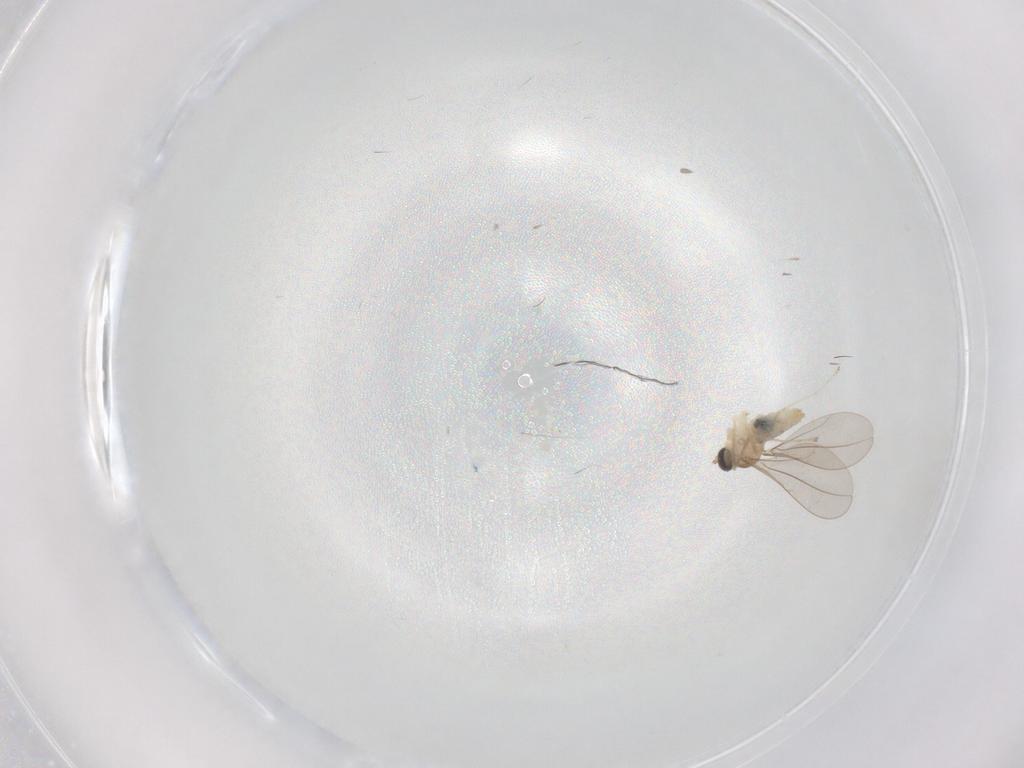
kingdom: Animalia
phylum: Arthropoda
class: Insecta
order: Diptera
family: Cecidomyiidae
